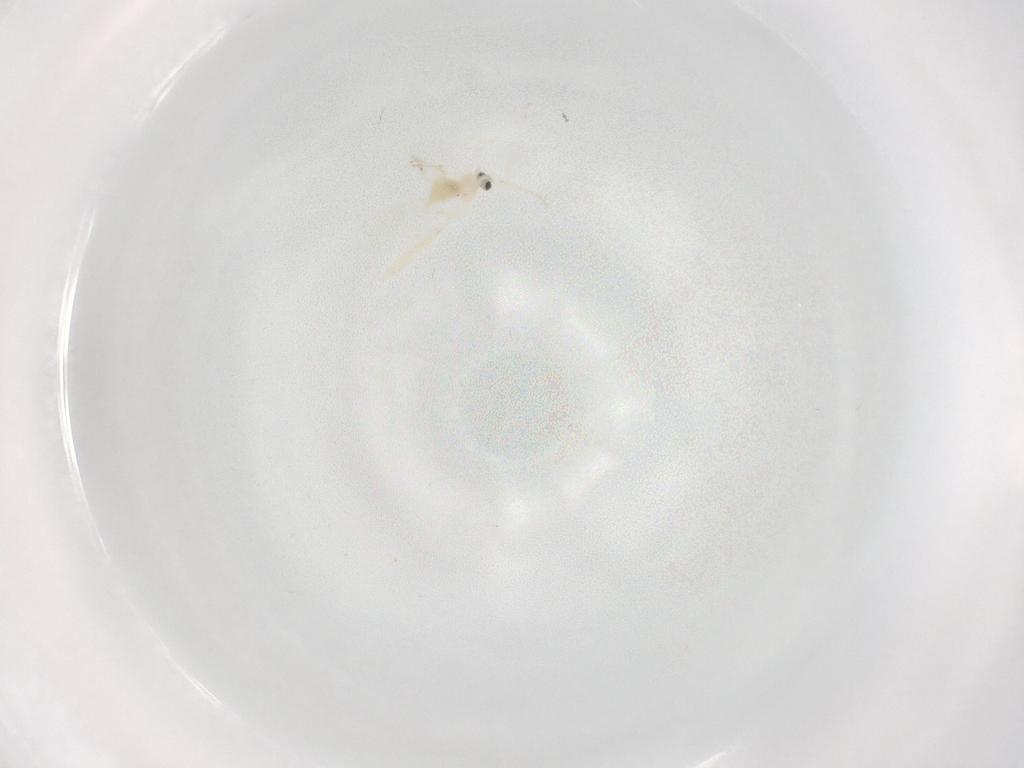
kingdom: Animalia
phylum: Arthropoda
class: Insecta
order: Diptera
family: Cecidomyiidae
